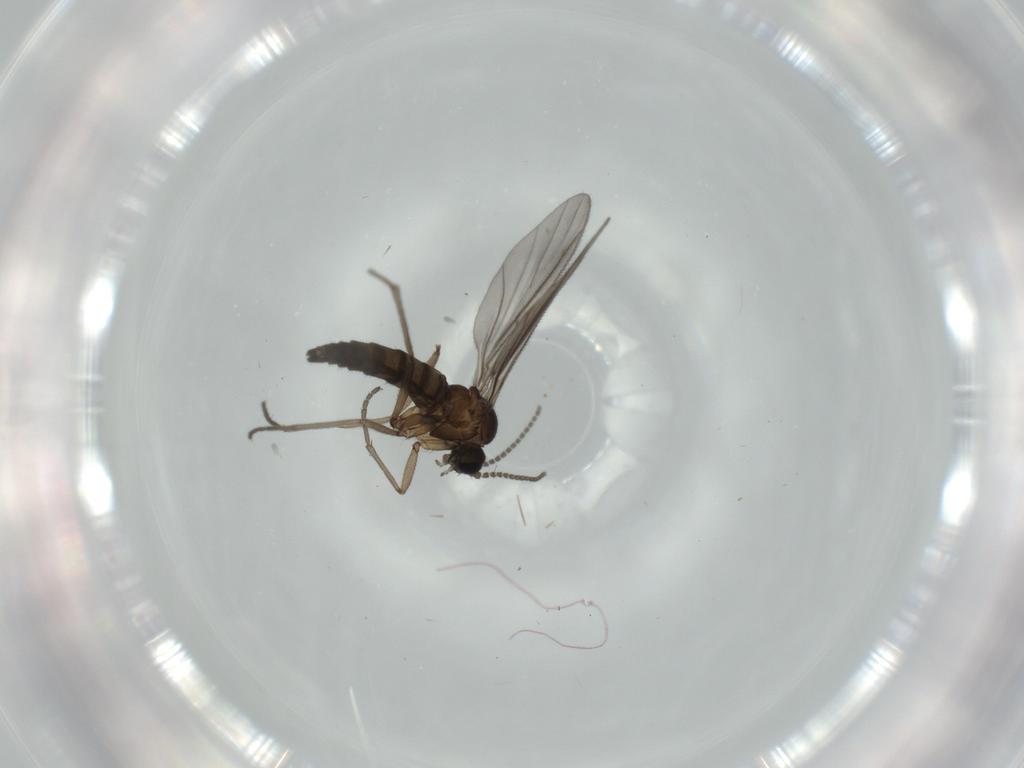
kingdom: Animalia
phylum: Arthropoda
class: Insecta
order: Diptera
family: Sciaridae
